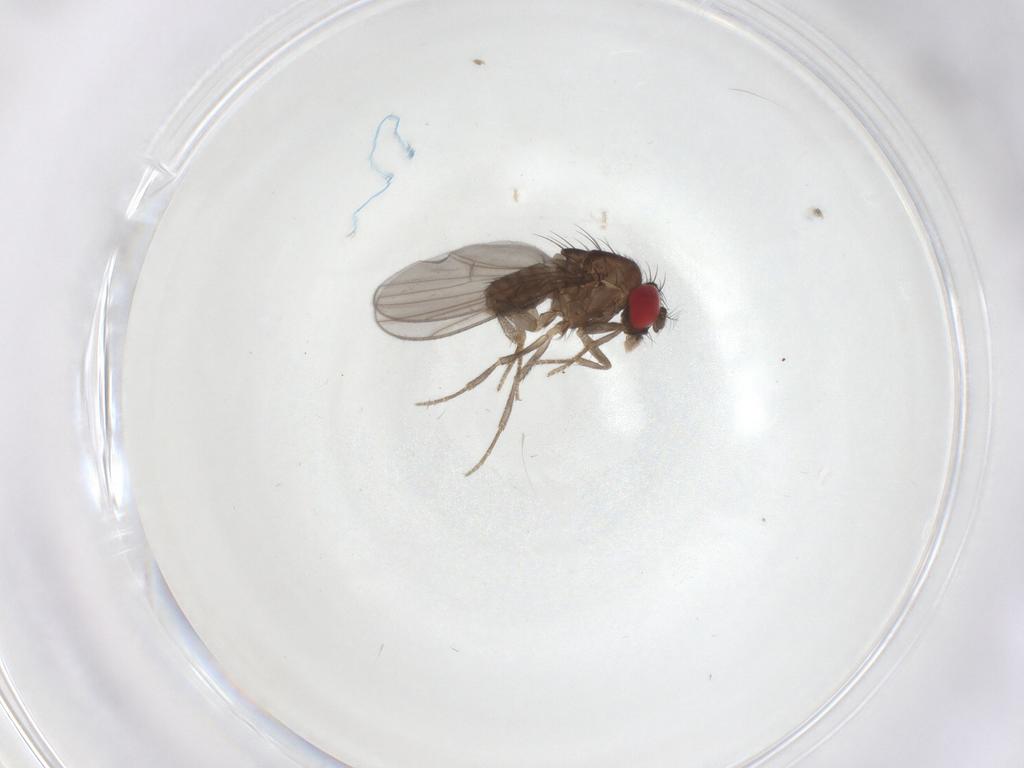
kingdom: Animalia
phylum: Arthropoda
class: Insecta
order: Diptera
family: Drosophilidae
